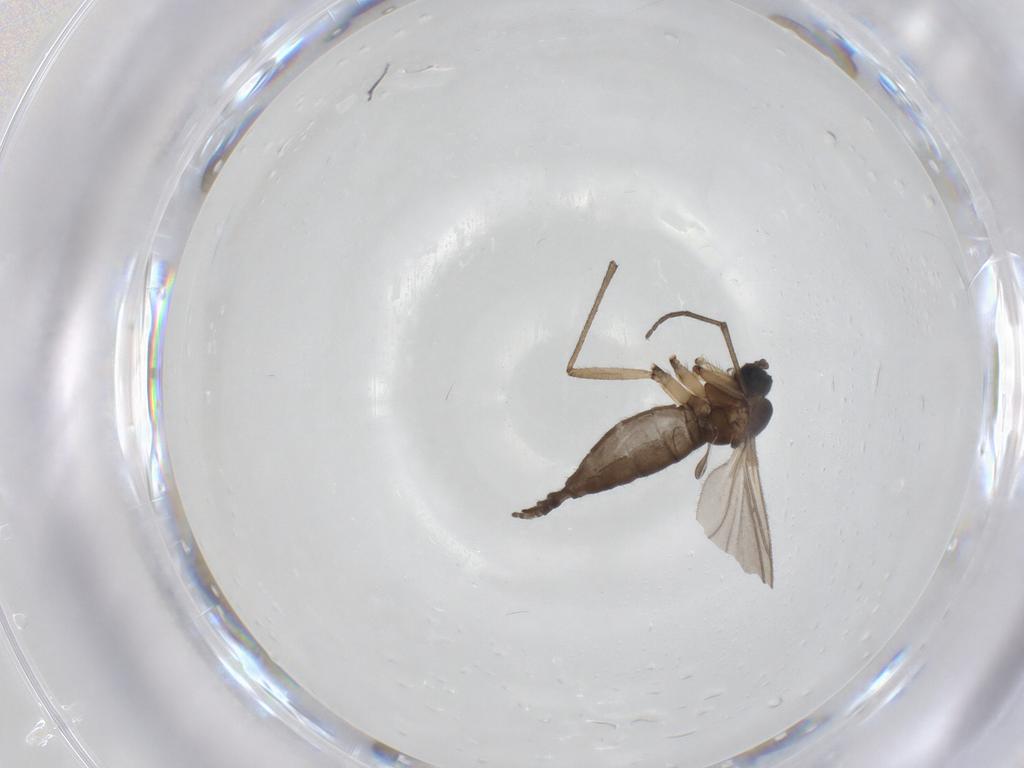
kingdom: Animalia
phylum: Arthropoda
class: Insecta
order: Diptera
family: Sciaridae
